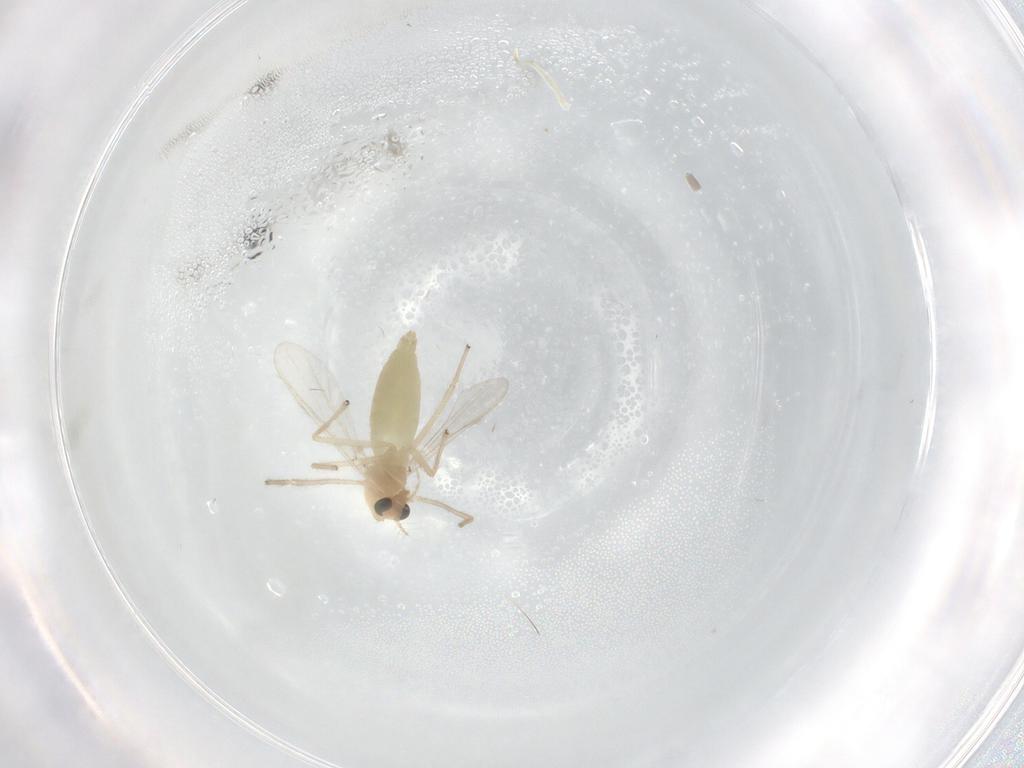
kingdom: Animalia
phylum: Arthropoda
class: Insecta
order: Diptera
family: Chironomidae
